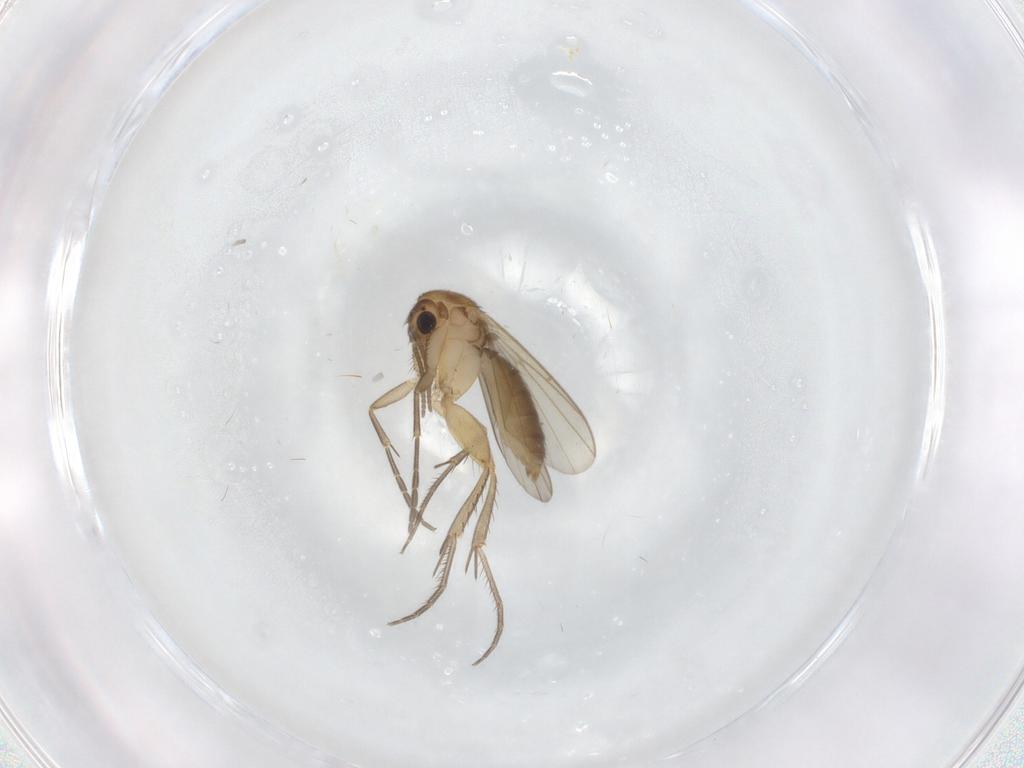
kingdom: Animalia
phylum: Arthropoda
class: Insecta
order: Diptera
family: Mycetophilidae
